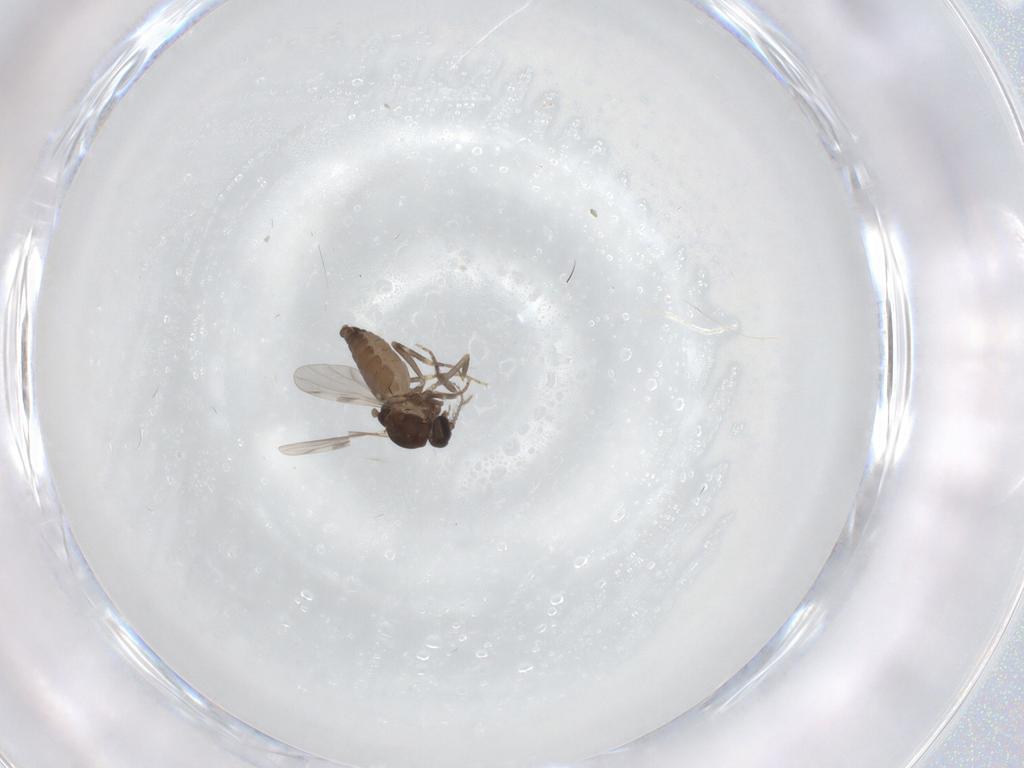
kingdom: Animalia
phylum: Arthropoda
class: Insecta
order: Diptera
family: Ceratopogonidae
